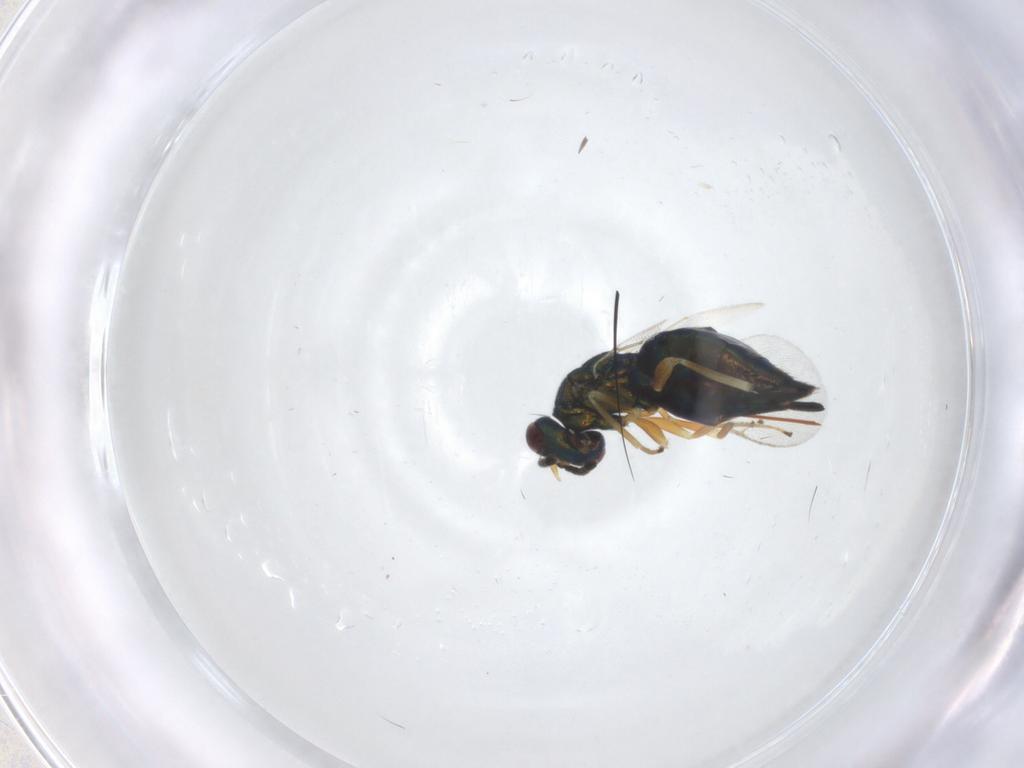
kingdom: Animalia
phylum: Arthropoda
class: Insecta
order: Hymenoptera
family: Pteromalidae
